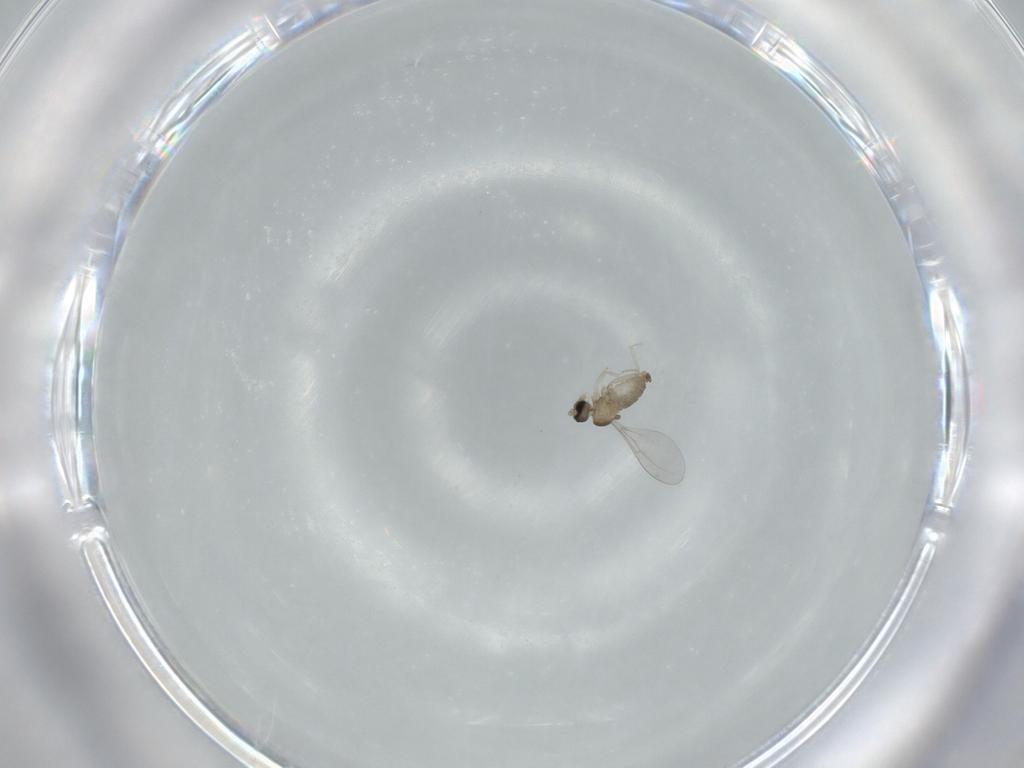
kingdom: Animalia
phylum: Arthropoda
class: Insecta
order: Diptera
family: Cecidomyiidae
